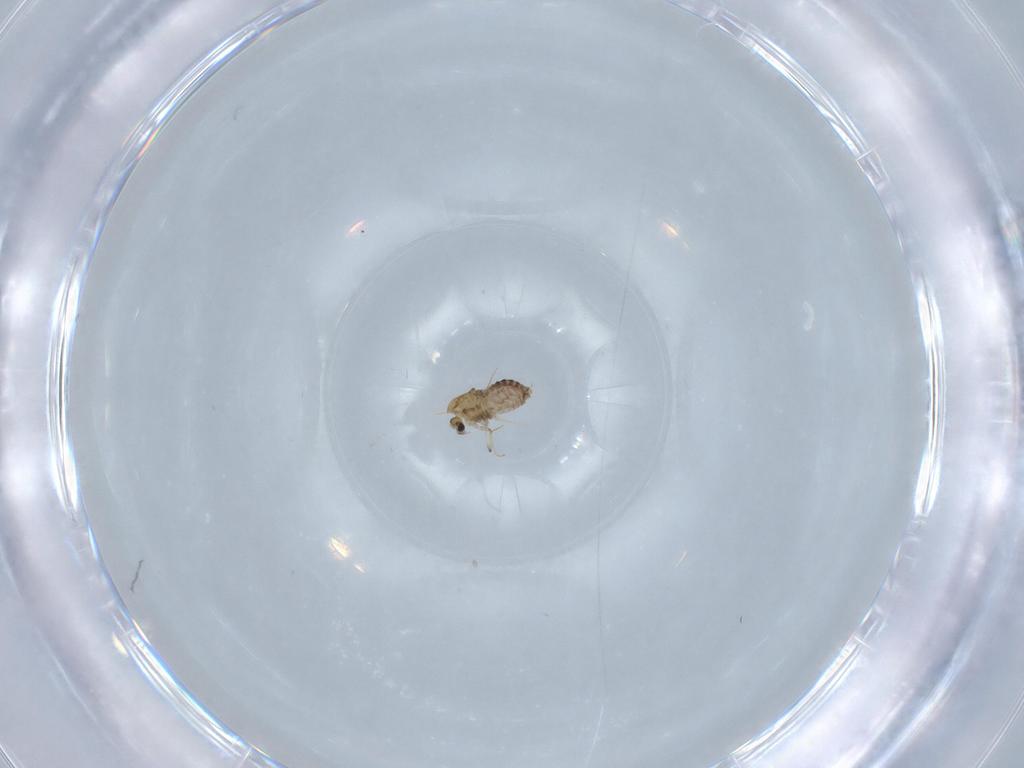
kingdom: Animalia
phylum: Arthropoda
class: Insecta
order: Diptera
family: Chironomidae
